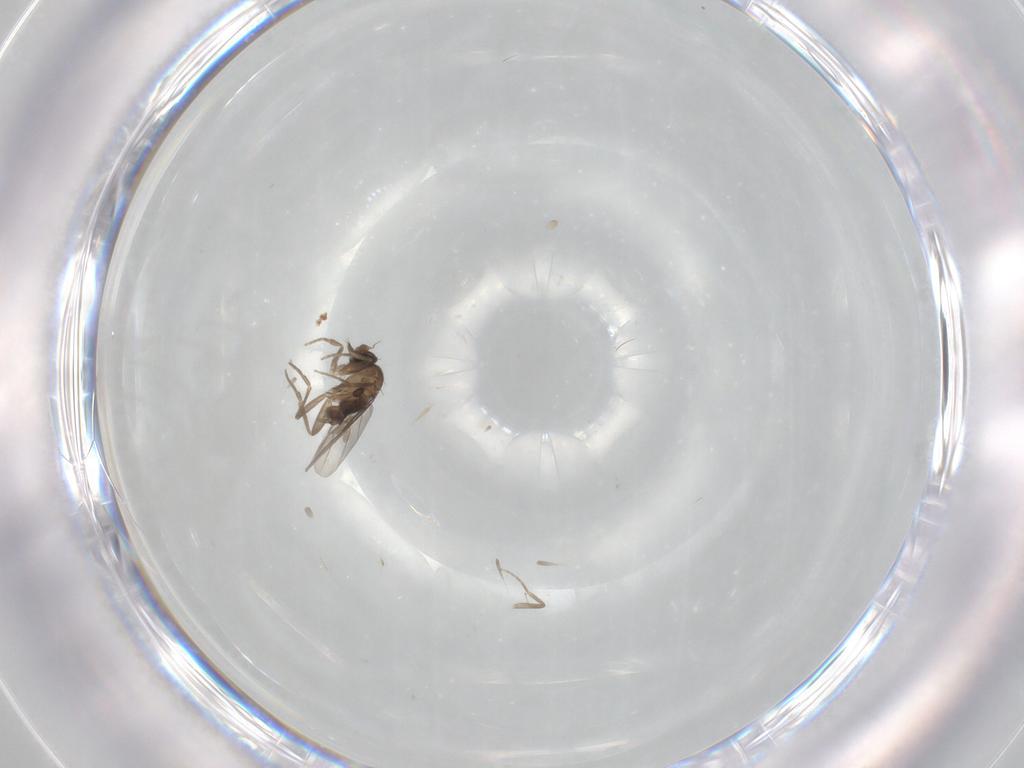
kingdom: Animalia
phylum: Arthropoda
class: Insecta
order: Diptera
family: Phoridae
